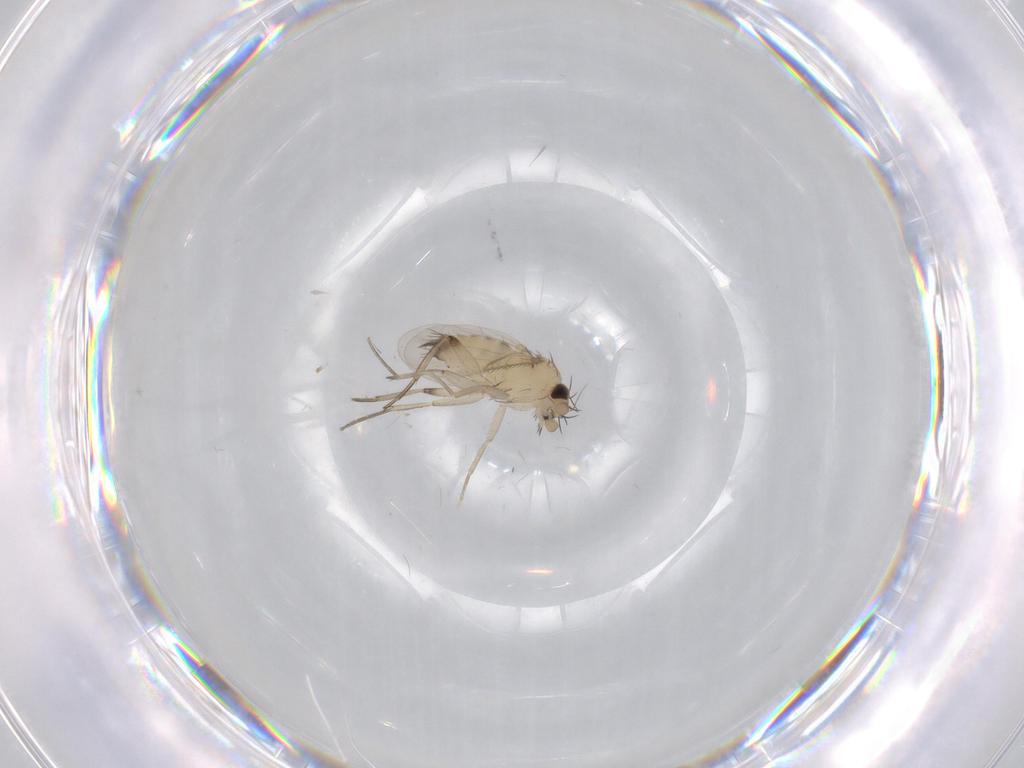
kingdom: Animalia
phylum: Arthropoda
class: Insecta
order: Diptera
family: Phoridae
